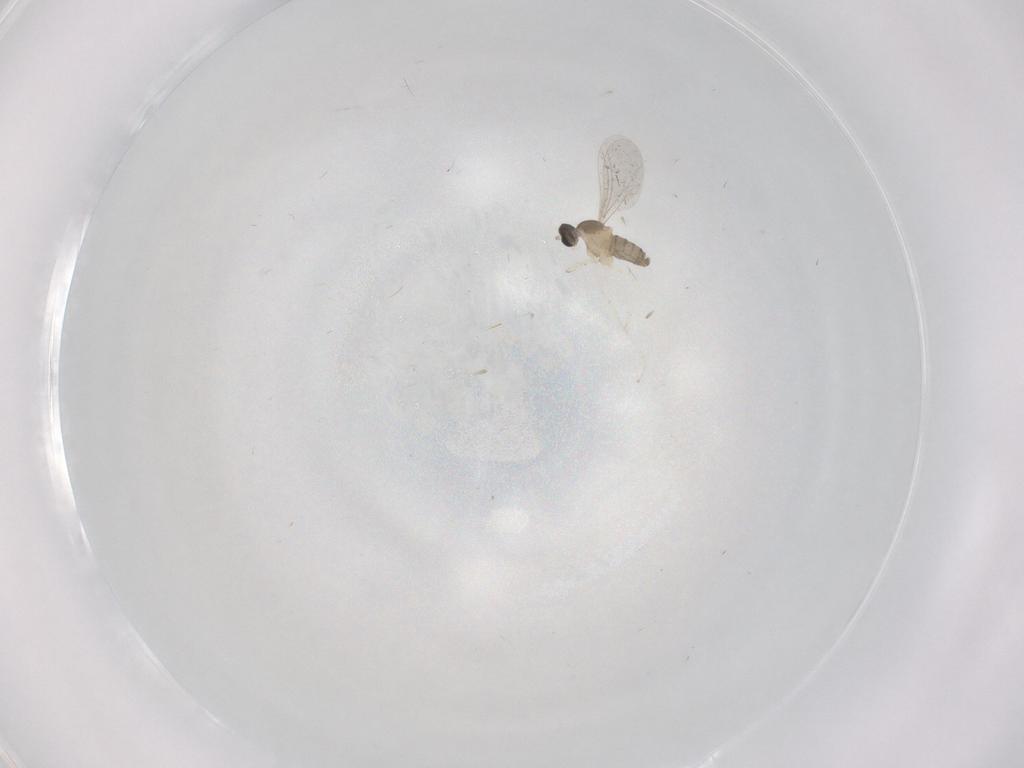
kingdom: Animalia
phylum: Arthropoda
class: Insecta
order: Diptera
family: Cecidomyiidae
